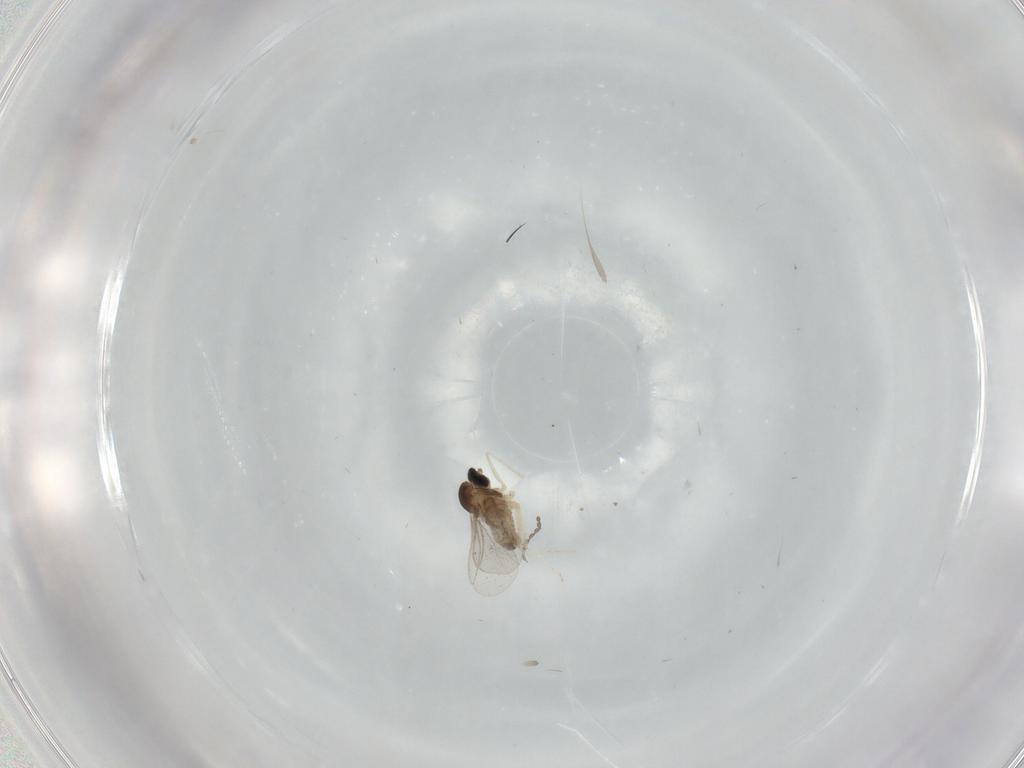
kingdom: Animalia
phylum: Arthropoda
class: Insecta
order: Diptera
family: Cecidomyiidae
